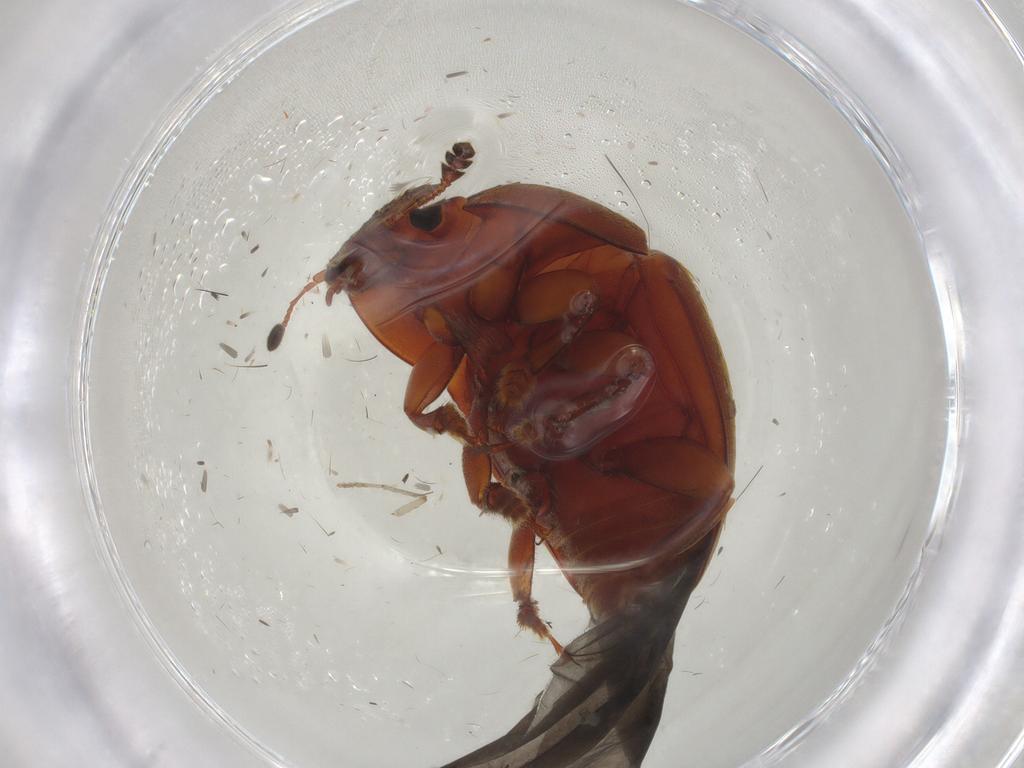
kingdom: Animalia
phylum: Arthropoda
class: Insecta
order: Coleoptera
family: Nitidulidae
